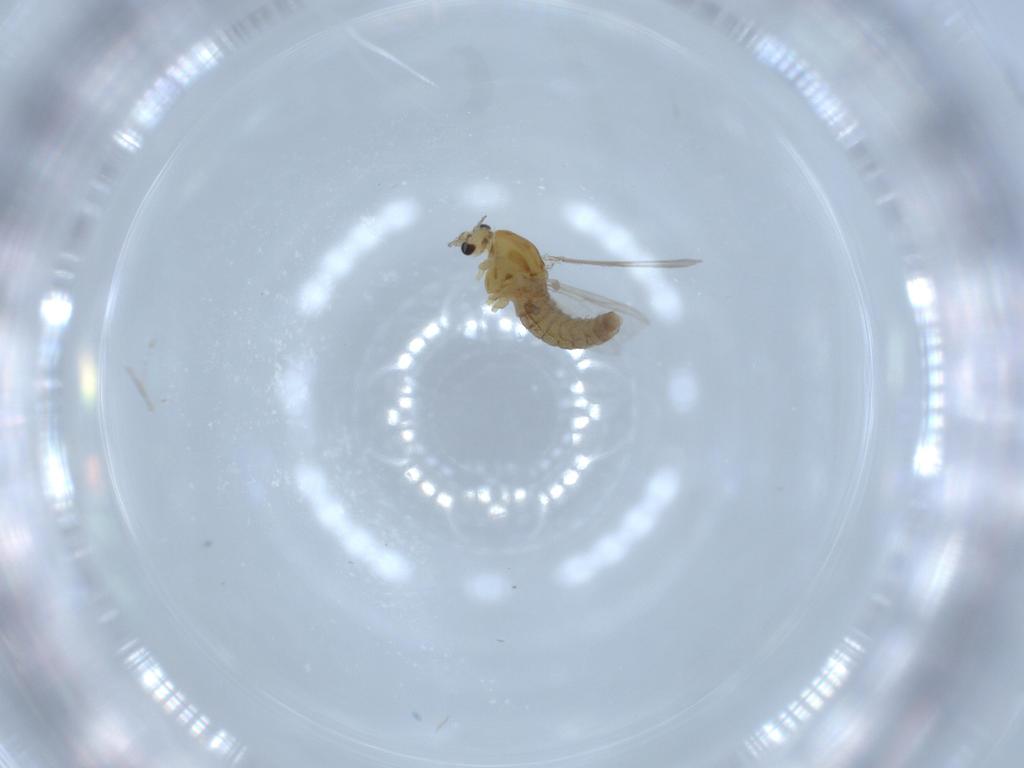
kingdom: Animalia
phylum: Arthropoda
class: Insecta
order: Diptera
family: Chironomidae
